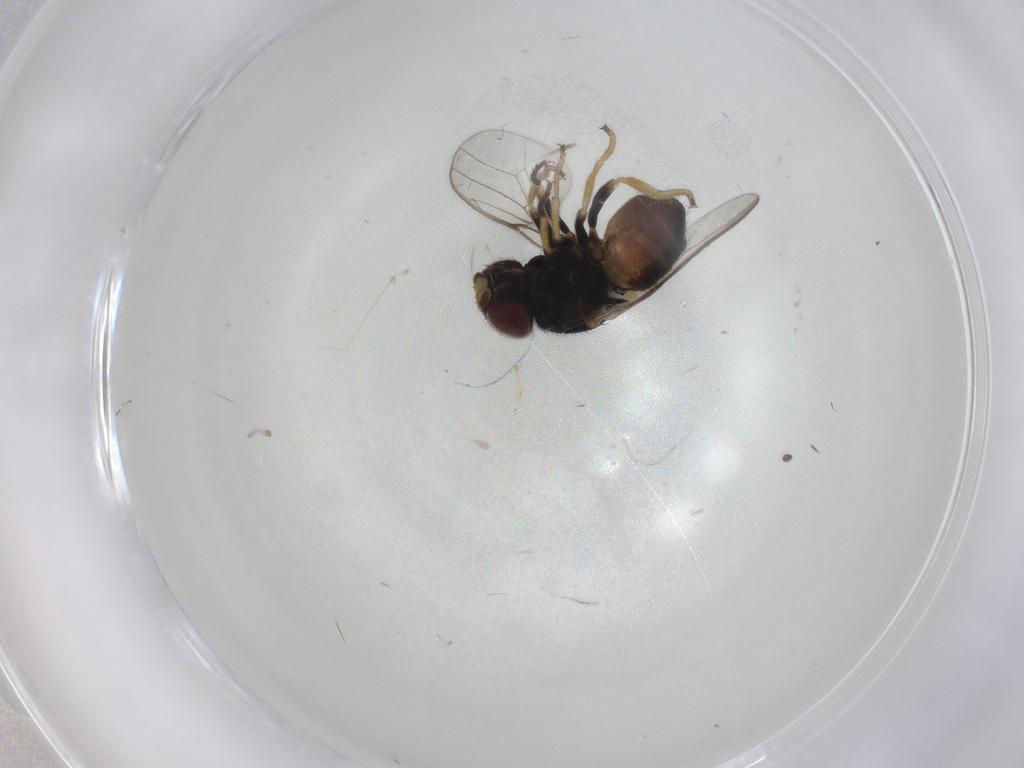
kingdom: Animalia
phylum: Arthropoda
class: Insecta
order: Diptera
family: Chloropidae
